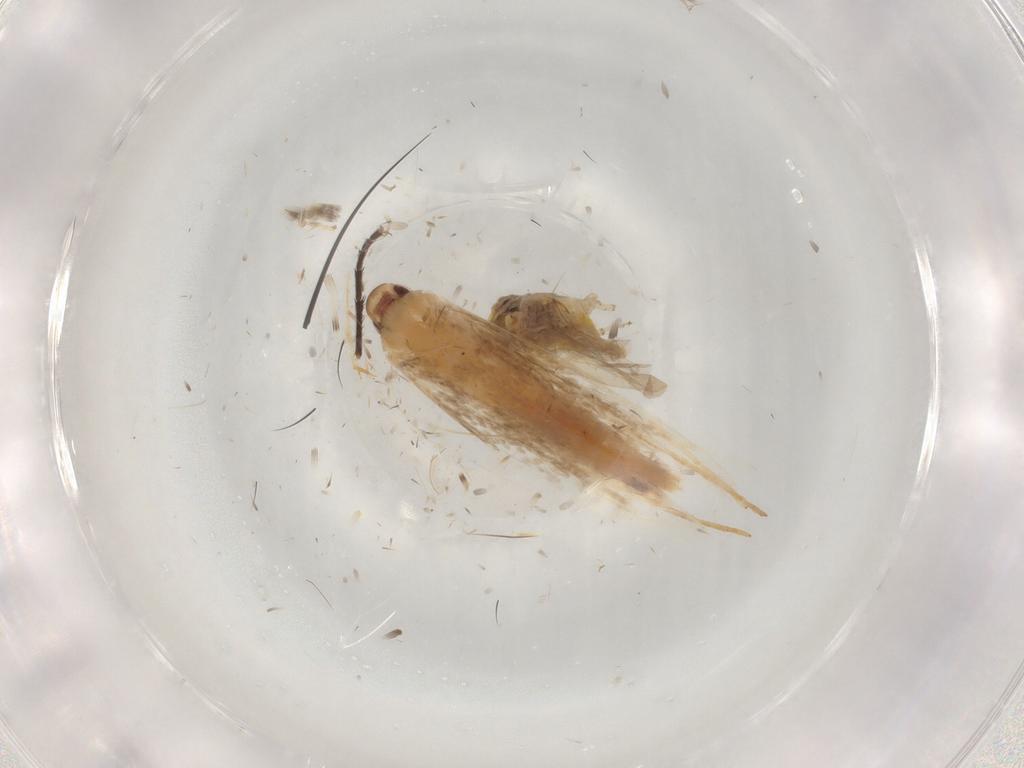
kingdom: Animalia
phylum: Arthropoda
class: Insecta
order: Lepidoptera
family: Cosmopterigidae
